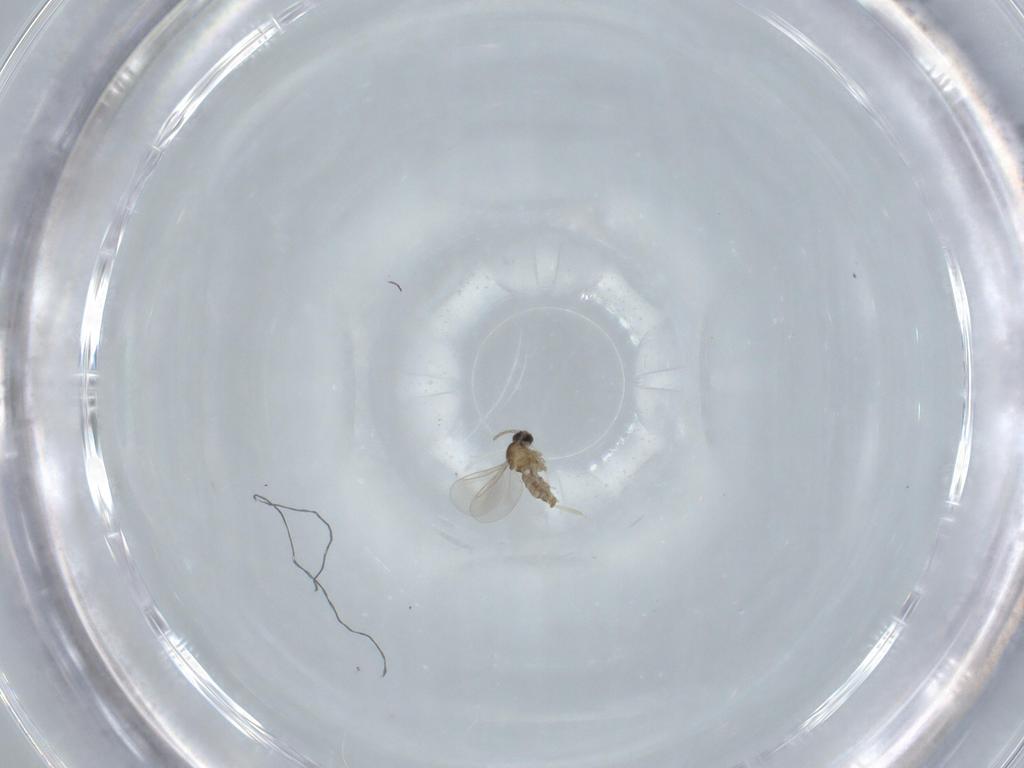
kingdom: Animalia
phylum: Arthropoda
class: Insecta
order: Diptera
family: Cecidomyiidae
